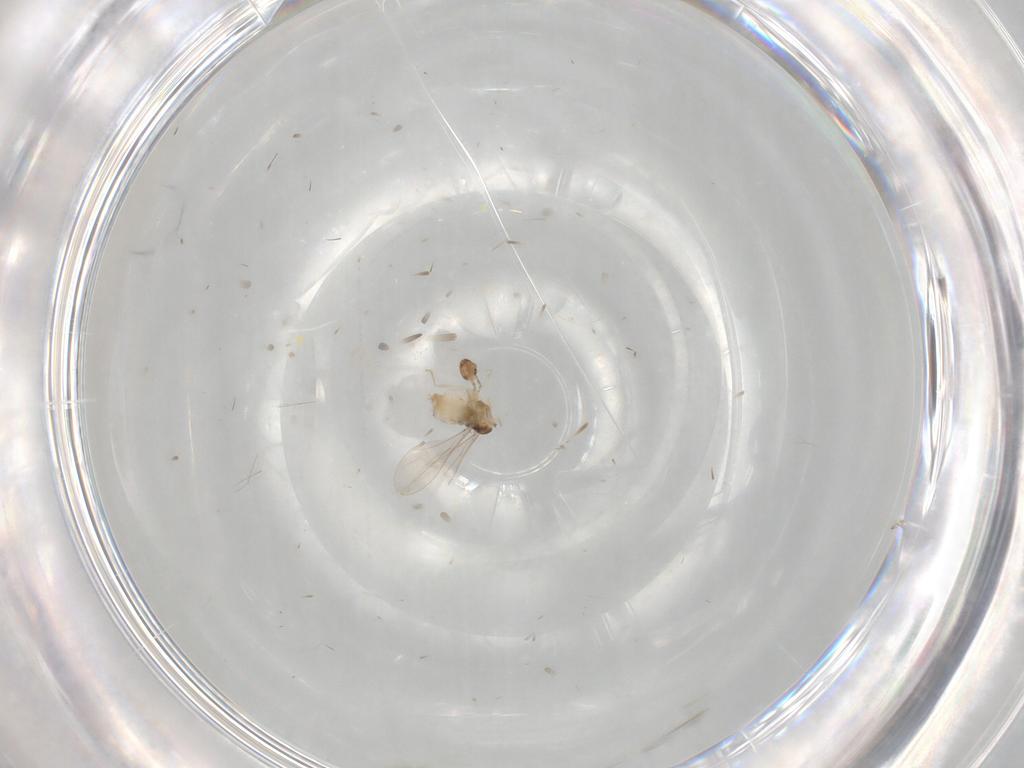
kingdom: Animalia
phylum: Arthropoda
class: Insecta
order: Diptera
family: Cecidomyiidae
